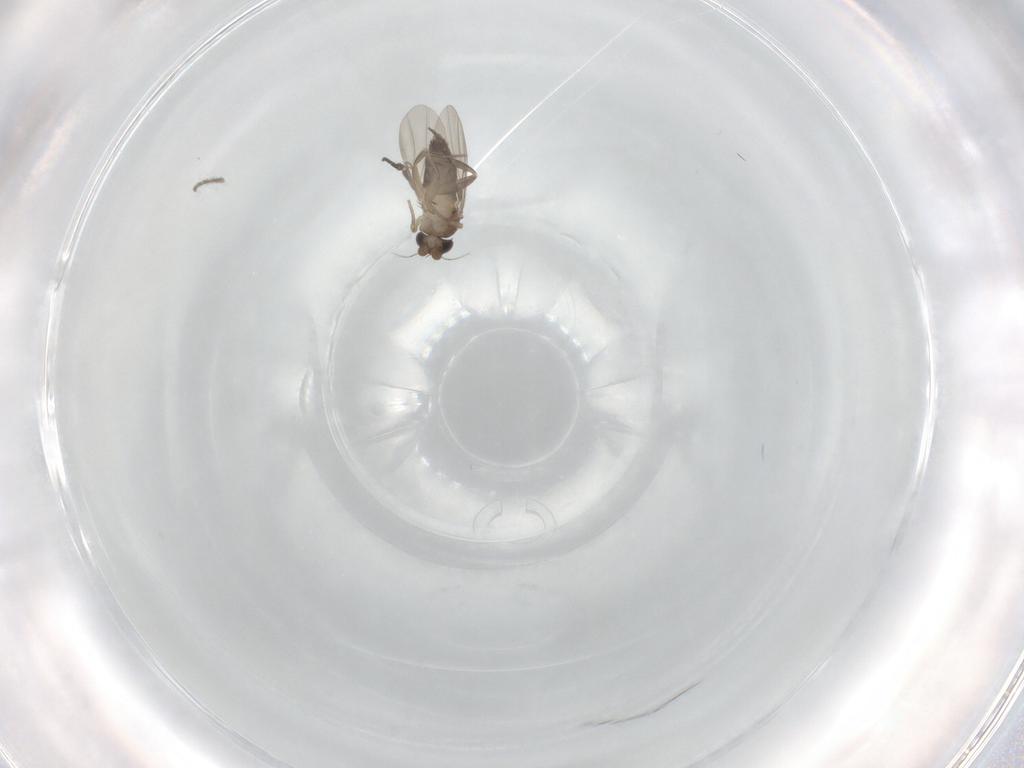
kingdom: Animalia
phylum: Arthropoda
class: Insecta
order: Diptera
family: Phoridae
